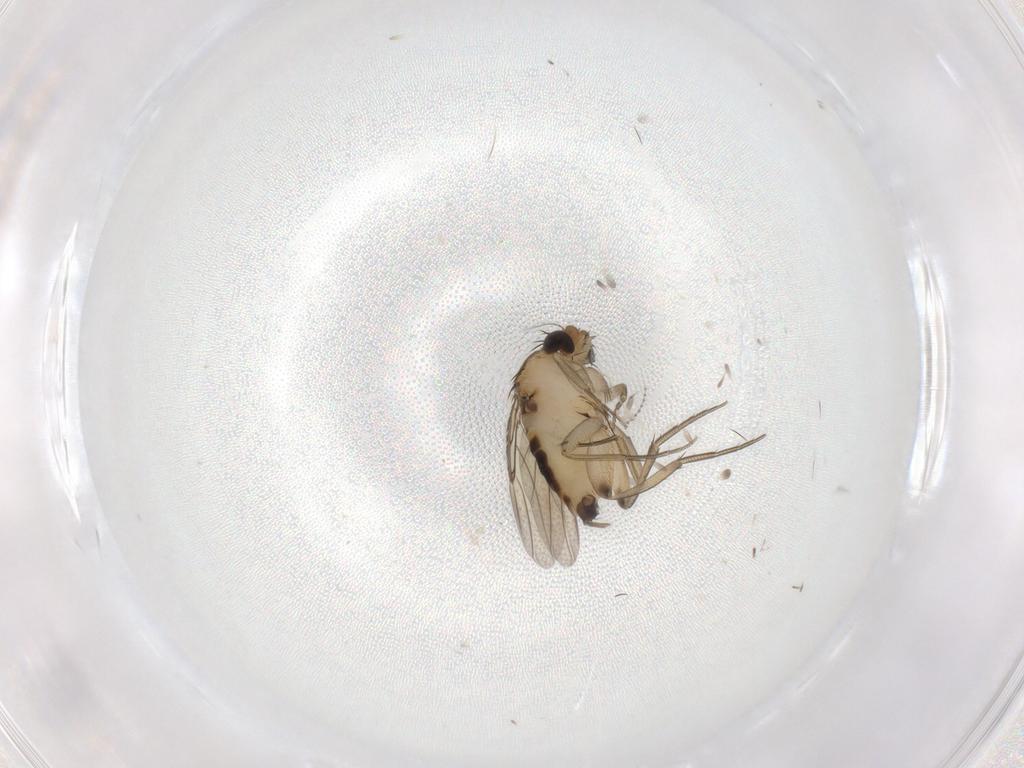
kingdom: Animalia
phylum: Arthropoda
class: Insecta
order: Diptera
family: Phoridae
